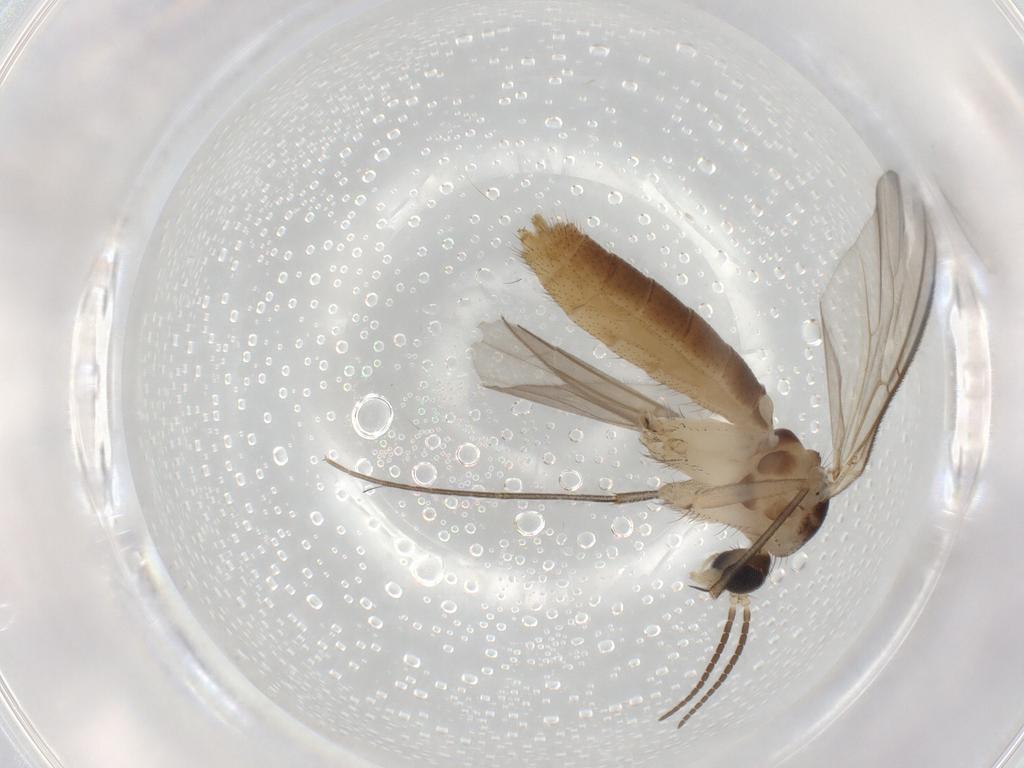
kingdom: Animalia
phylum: Arthropoda
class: Insecta
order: Diptera
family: Mycetophilidae
